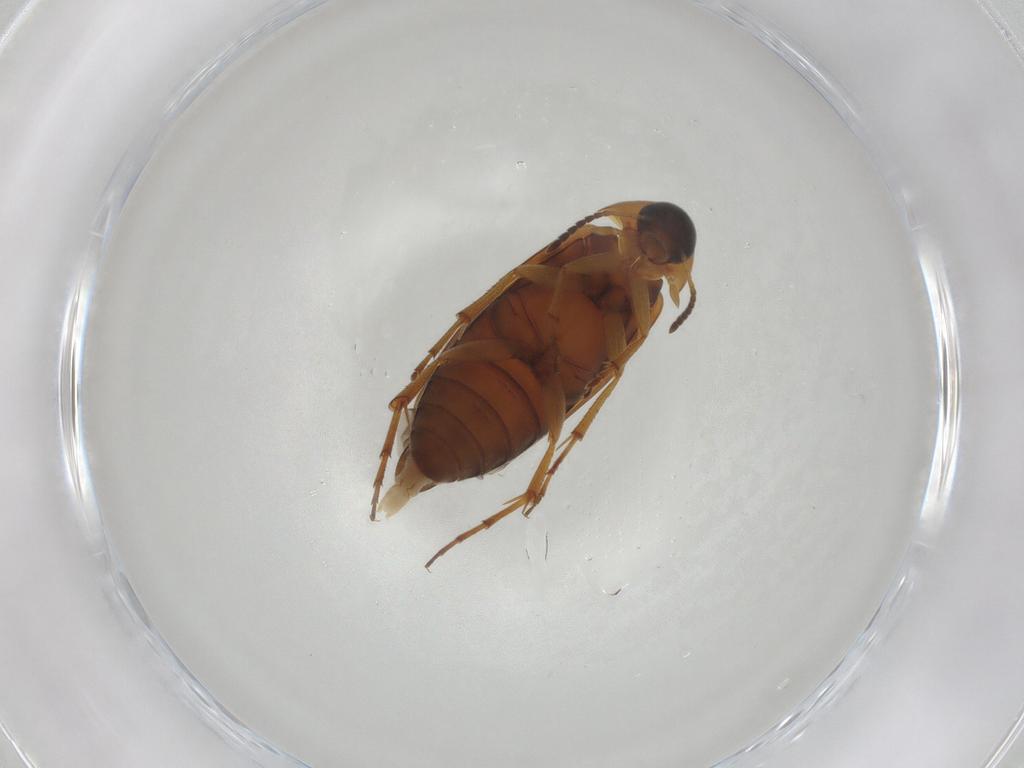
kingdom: Animalia
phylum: Arthropoda
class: Insecta
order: Coleoptera
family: Scraptiidae
